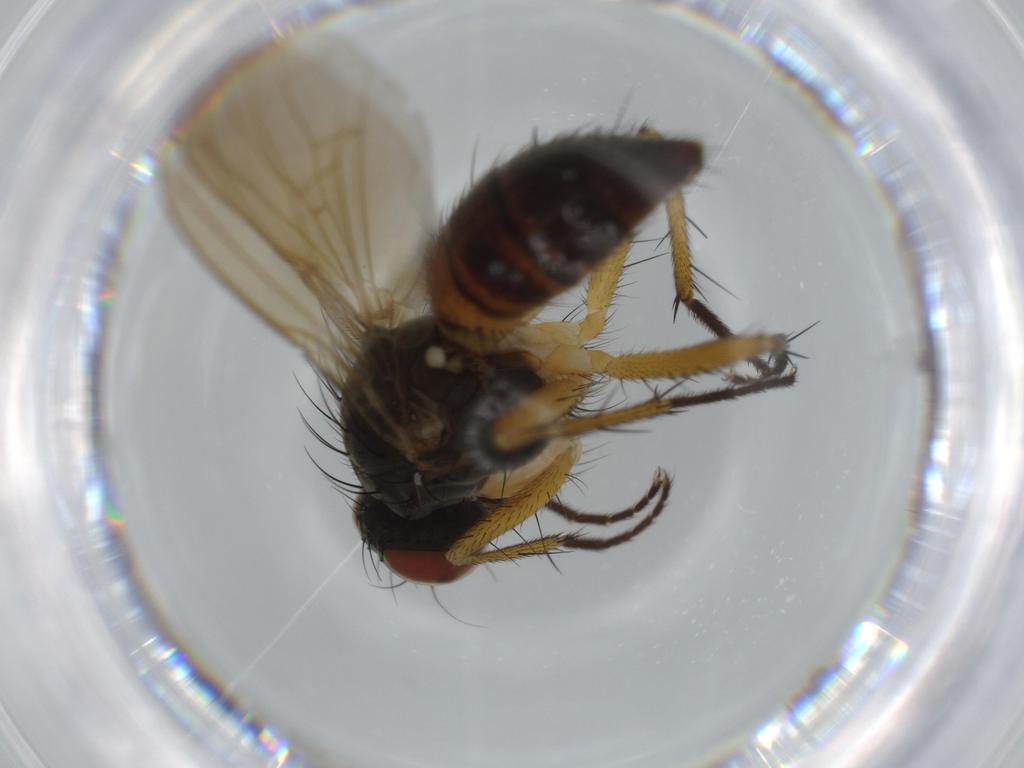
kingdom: Animalia
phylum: Arthropoda
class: Insecta
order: Diptera
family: Muscidae
